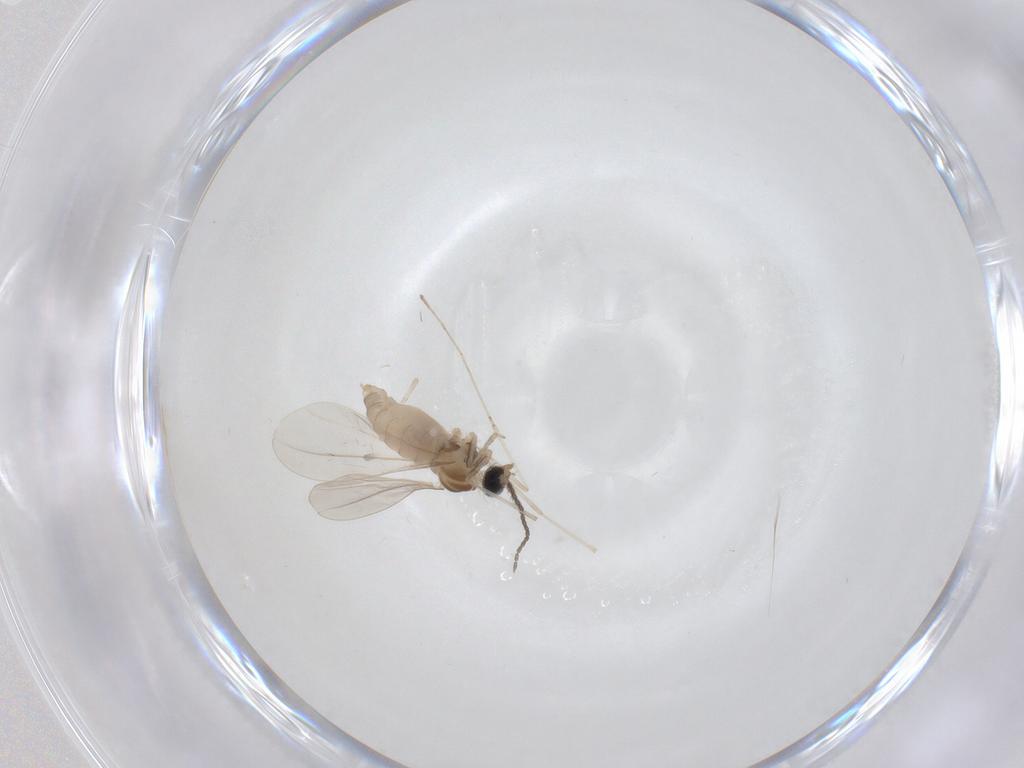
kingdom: Animalia
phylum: Arthropoda
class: Insecta
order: Diptera
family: Cecidomyiidae
